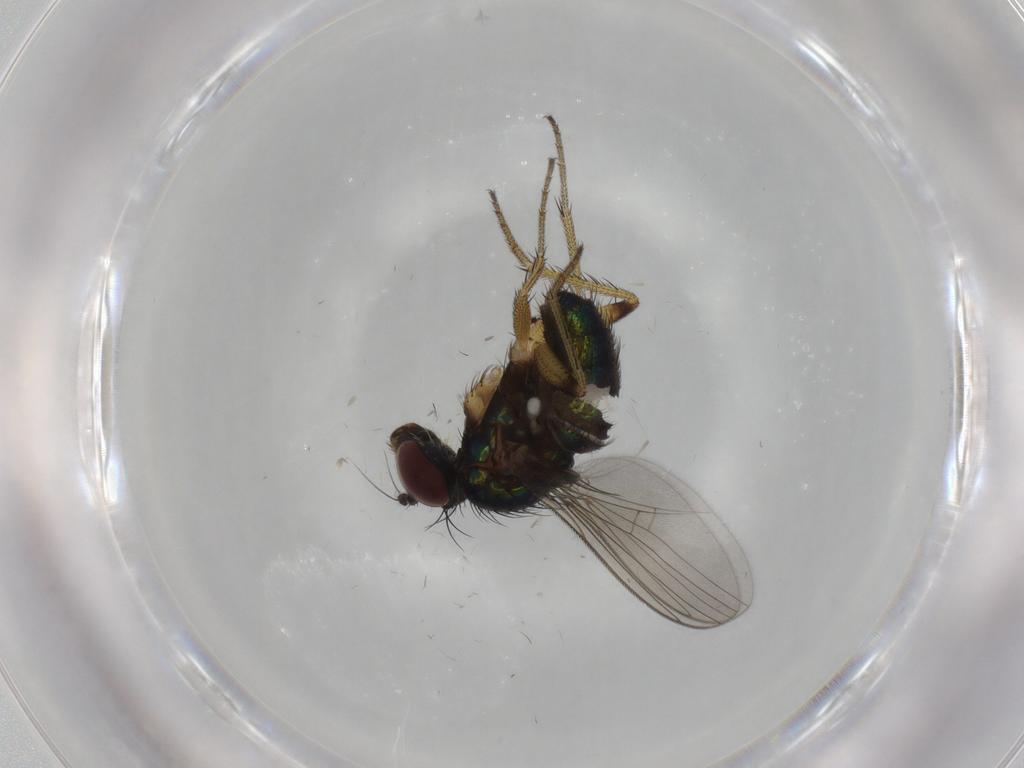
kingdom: Animalia
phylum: Arthropoda
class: Insecta
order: Diptera
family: Dolichopodidae
